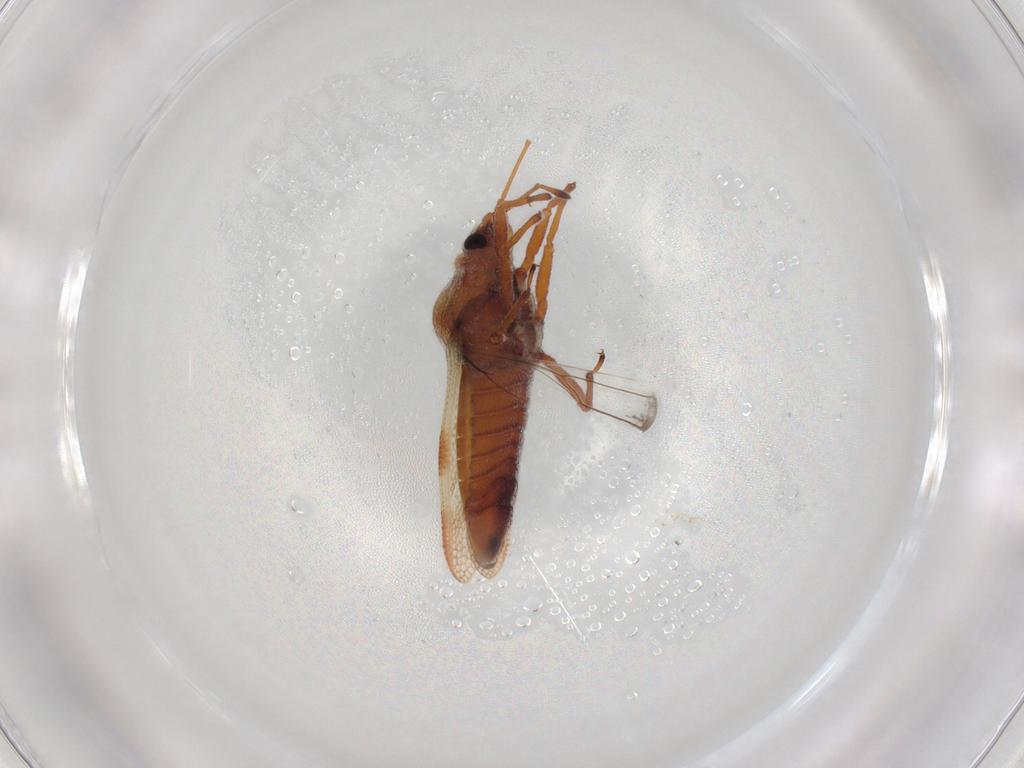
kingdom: Animalia
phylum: Arthropoda
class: Insecta
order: Hemiptera
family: Tingidae
